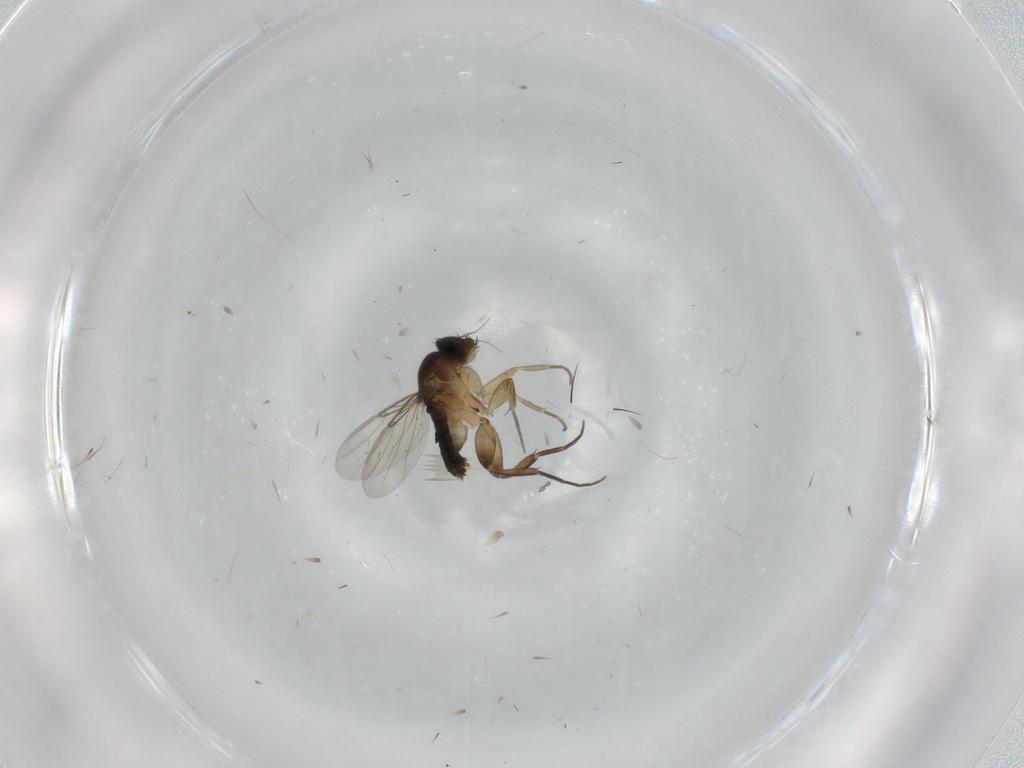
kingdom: Animalia
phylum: Arthropoda
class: Insecta
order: Diptera
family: Phoridae
